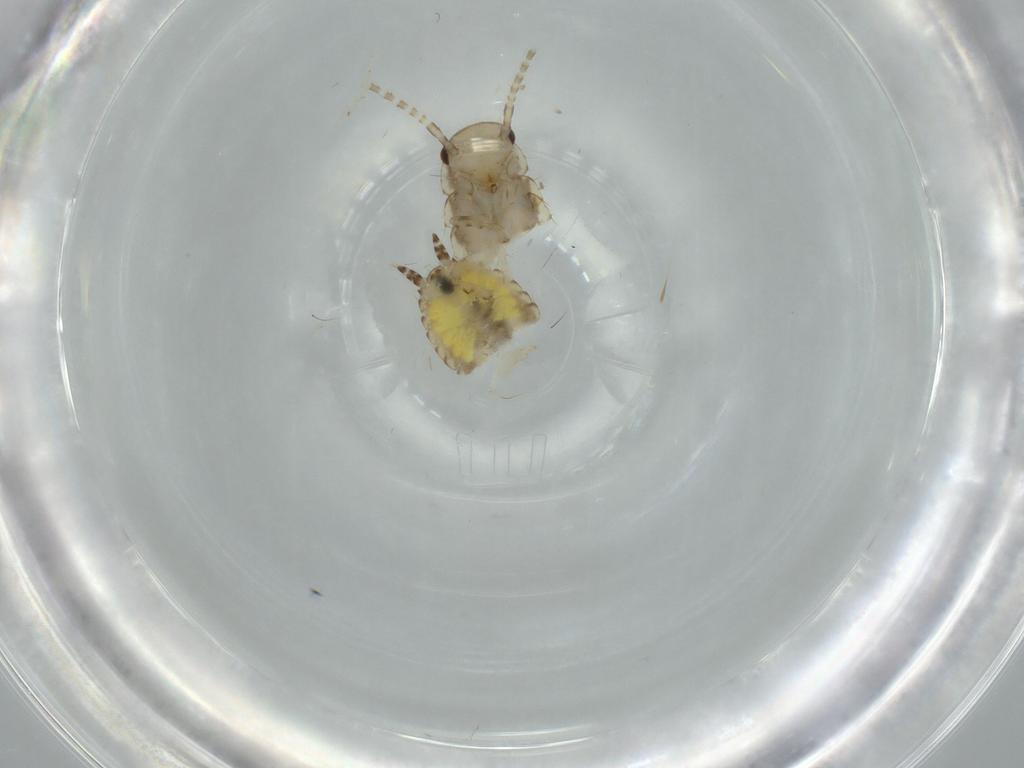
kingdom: Animalia
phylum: Arthropoda
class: Insecta
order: Blattodea
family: Ectobiidae
